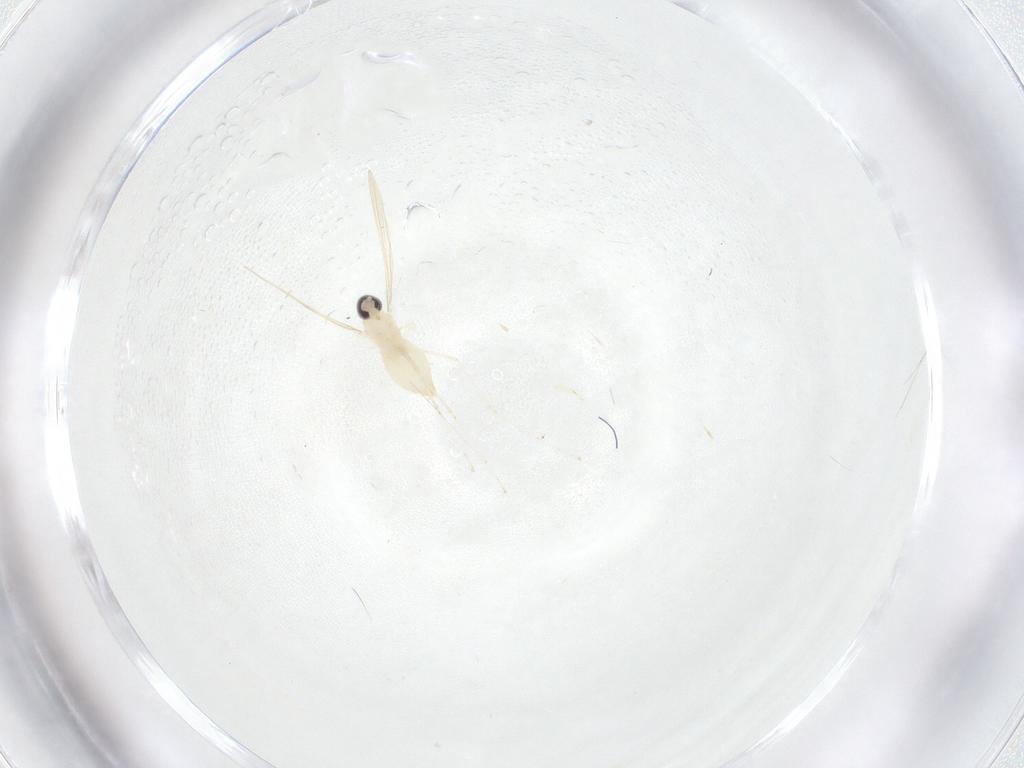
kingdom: Animalia
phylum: Arthropoda
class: Insecta
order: Diptera
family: Cecidomyiidae
